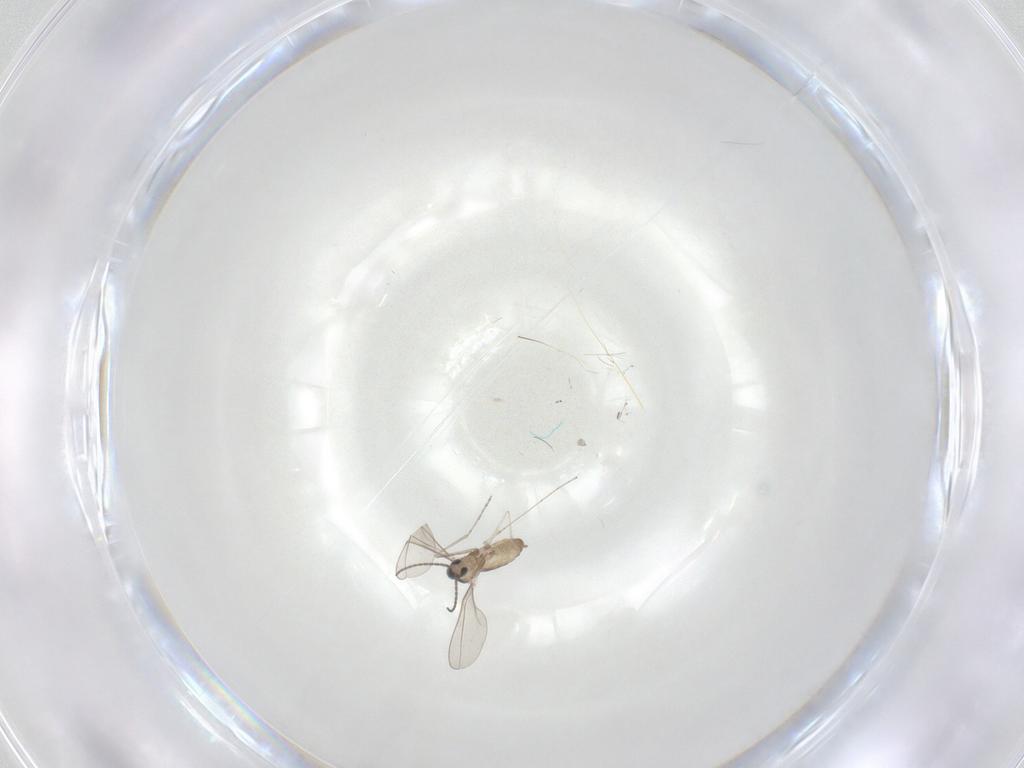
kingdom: Animalia
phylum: Arthropoda
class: Insecta
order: Diptera
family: Cecidomyiidae
